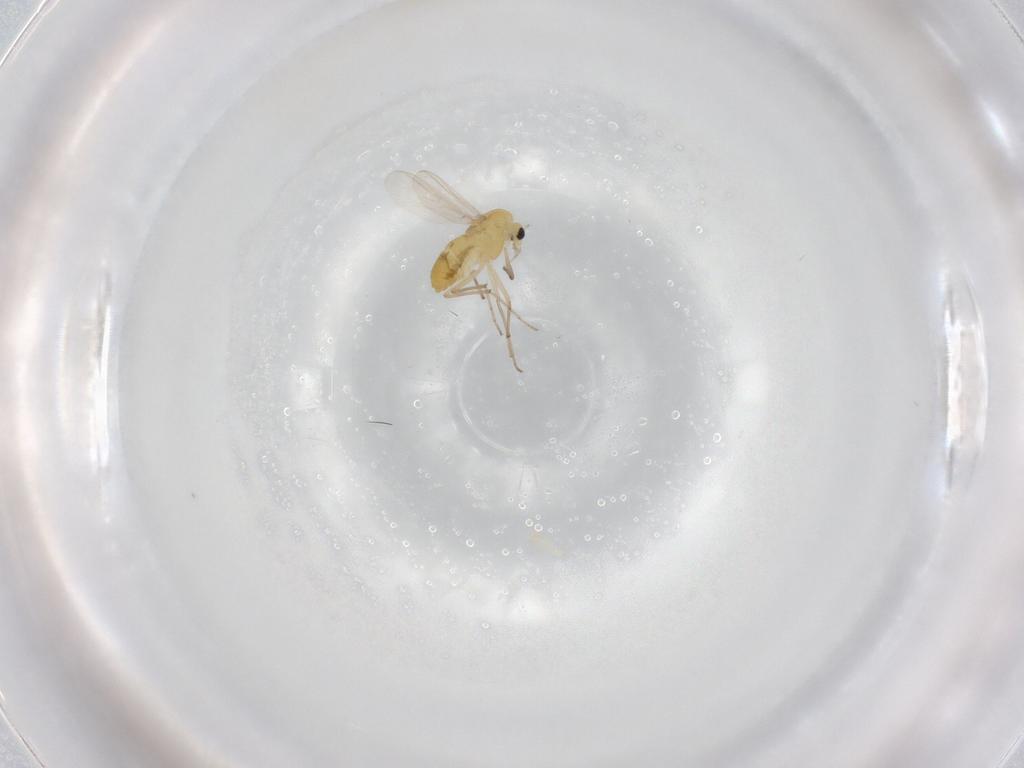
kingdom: Animalia
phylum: Arthropoda
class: Insecta
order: Diptera
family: Chironomidae
